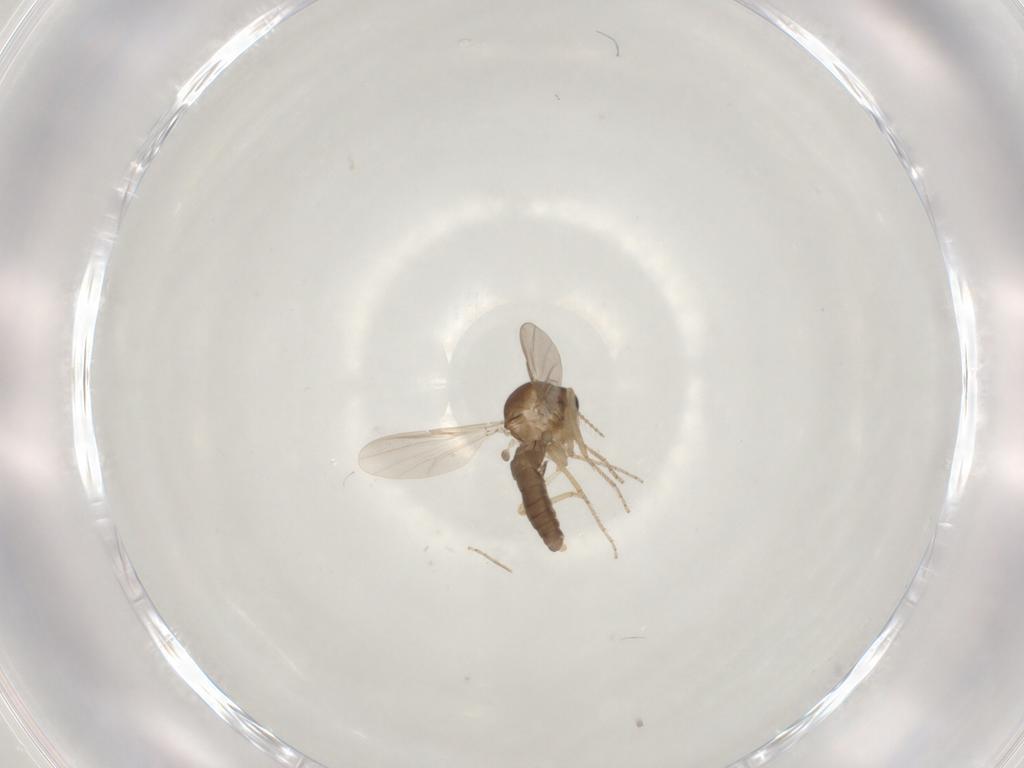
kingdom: Animalia
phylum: Arthropoda
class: Insecta
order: Diptera
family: Ceratopogonidae
